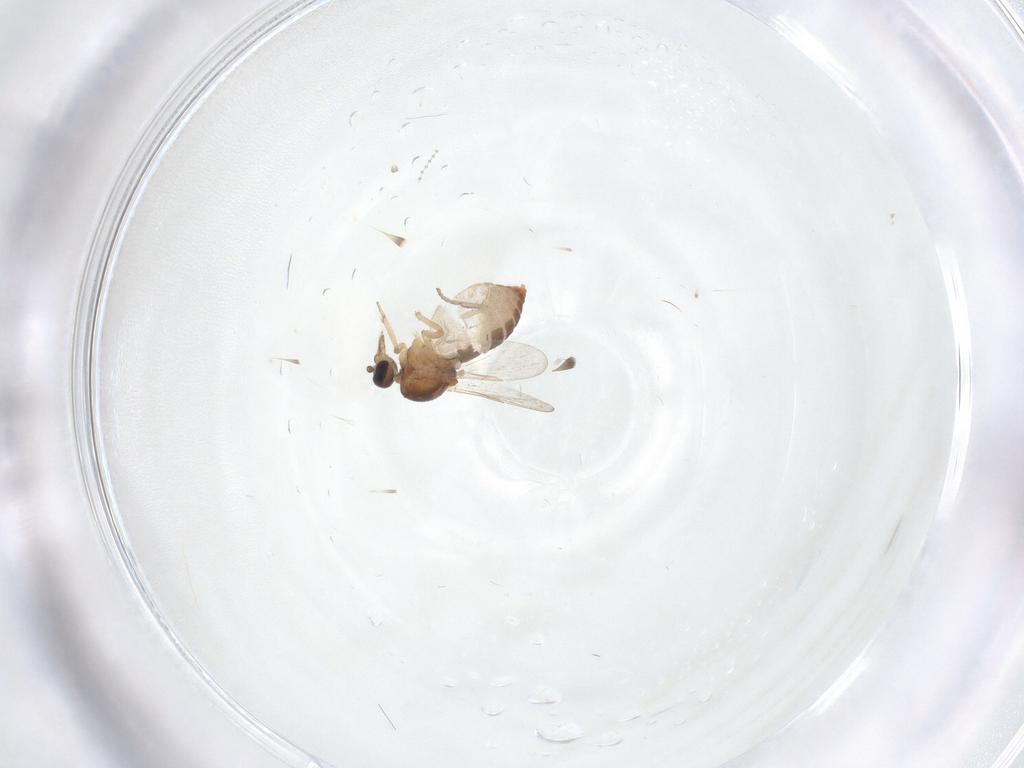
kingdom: Animalia
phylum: Arthropoda
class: Insecta
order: Diptera
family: Ceratopogonidae
